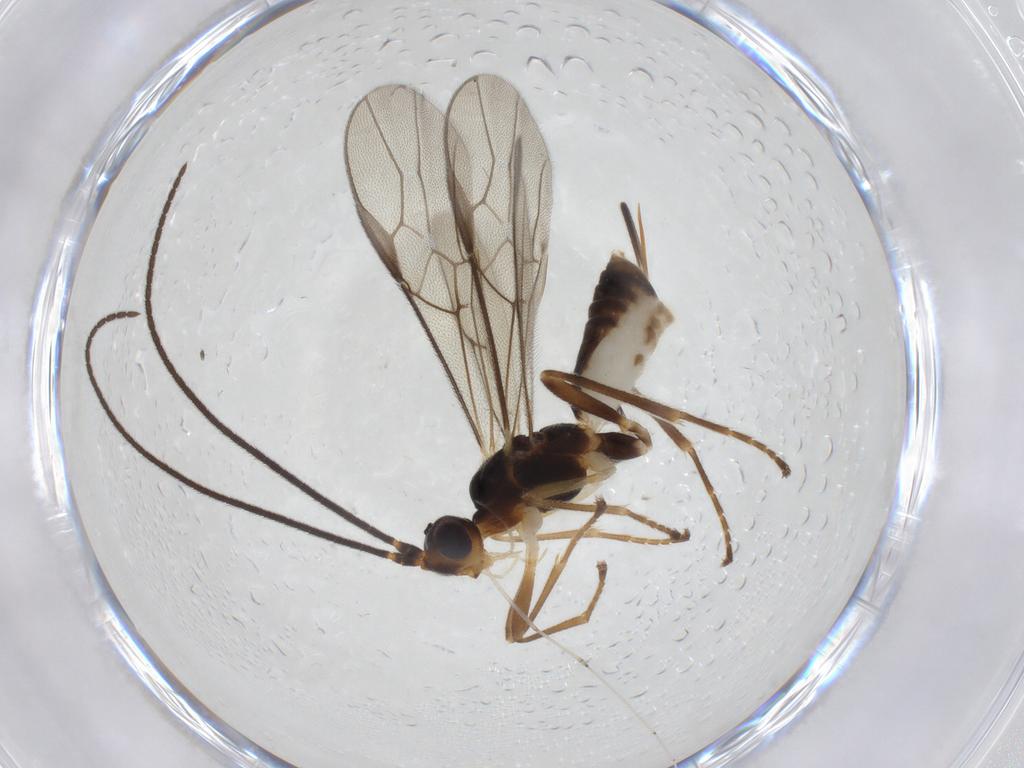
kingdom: Animalia
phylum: Arthropoda
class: Insecta
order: Hymenoptera
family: Braconidae
